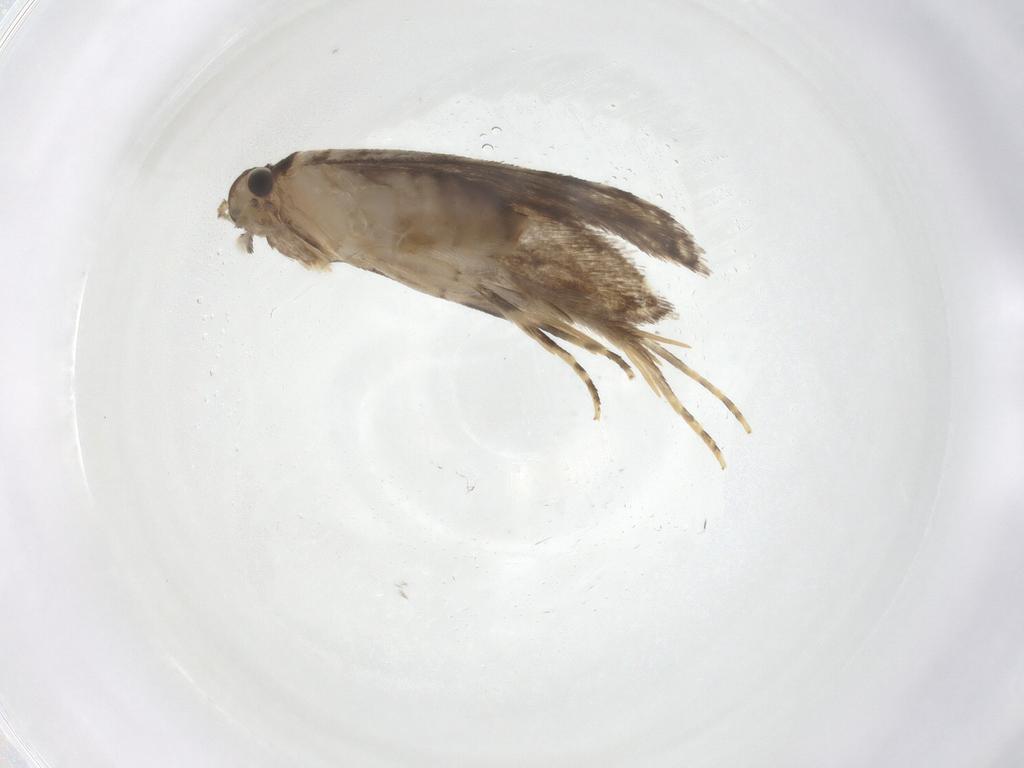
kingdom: Animalia
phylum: Arthropoda
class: Insecta
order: Lepidoptera
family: Tineidae
